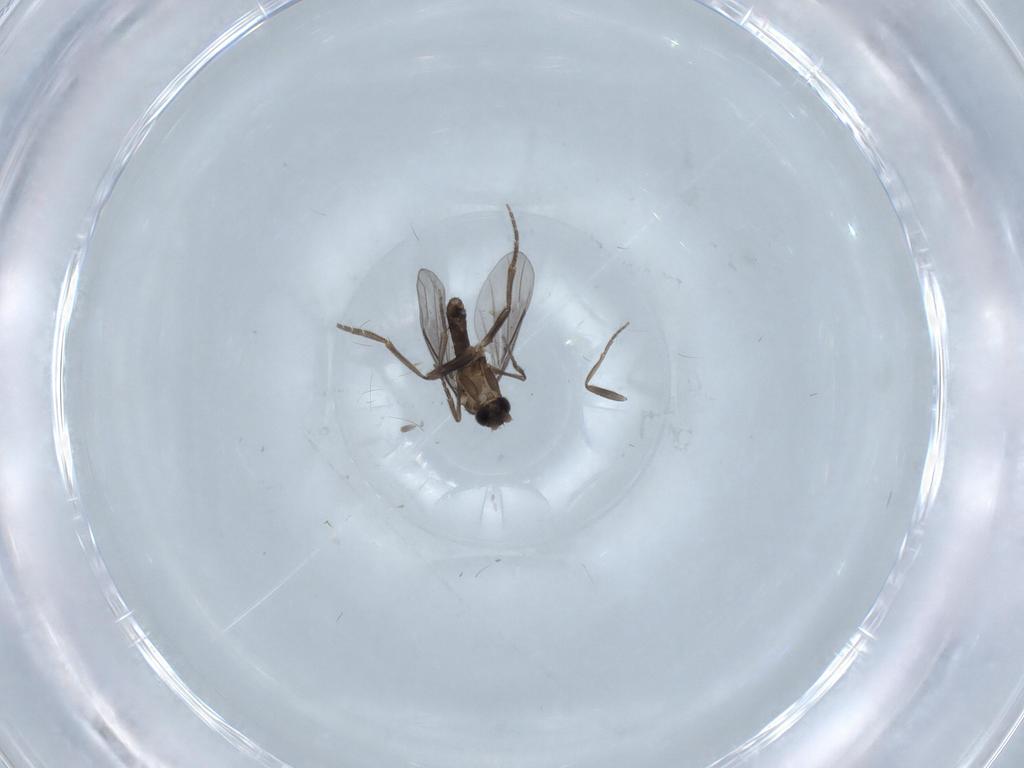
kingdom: Animalia
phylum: Arthropoda
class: Insecta
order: Diptera
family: Phoridae
